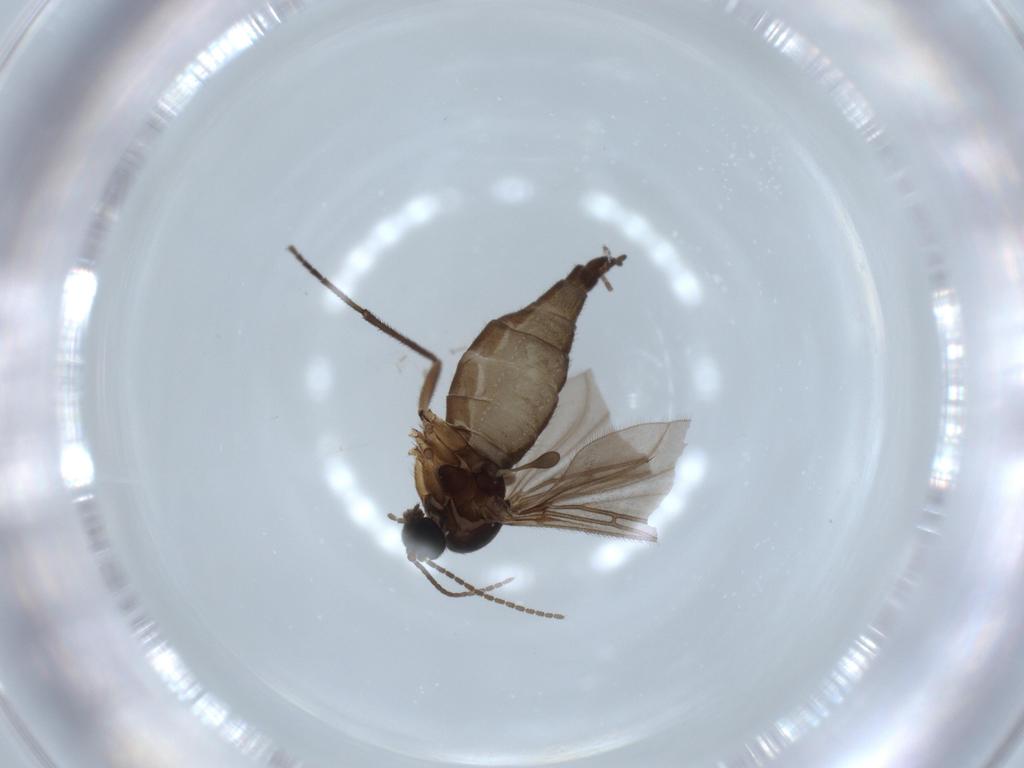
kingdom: Animalia
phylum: Arthropoda
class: Insecta
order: Diptera
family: Sciaridae
